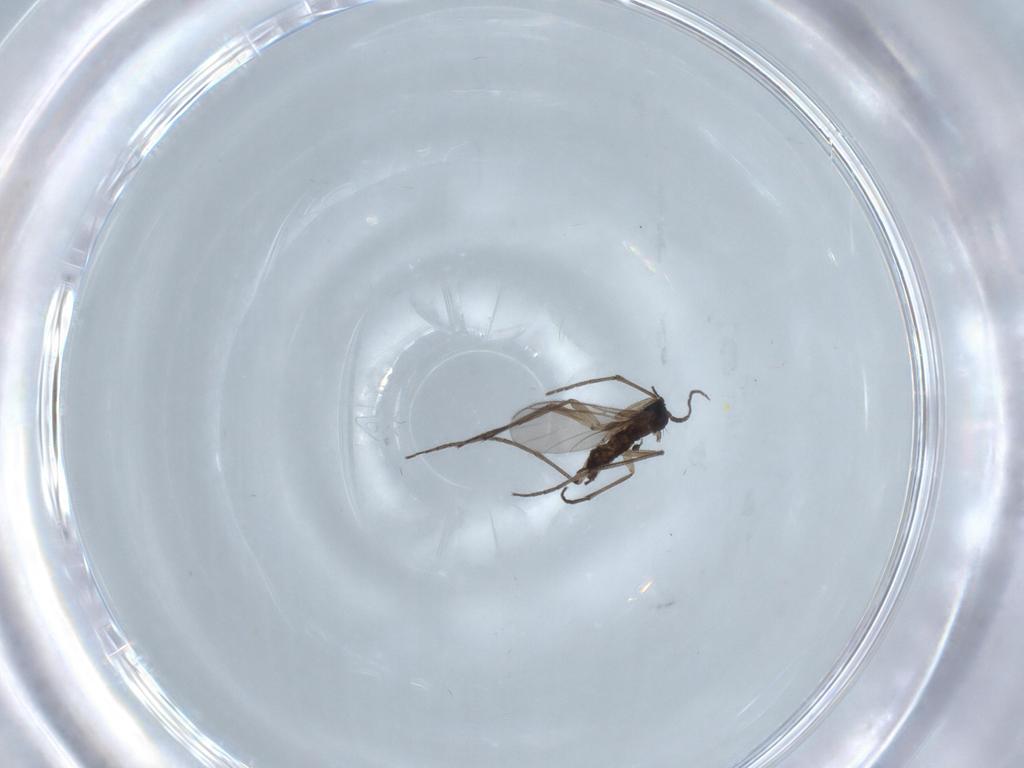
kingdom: Animalia
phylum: Arthropoda
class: Insecta
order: Diptera
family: Sciaridae
